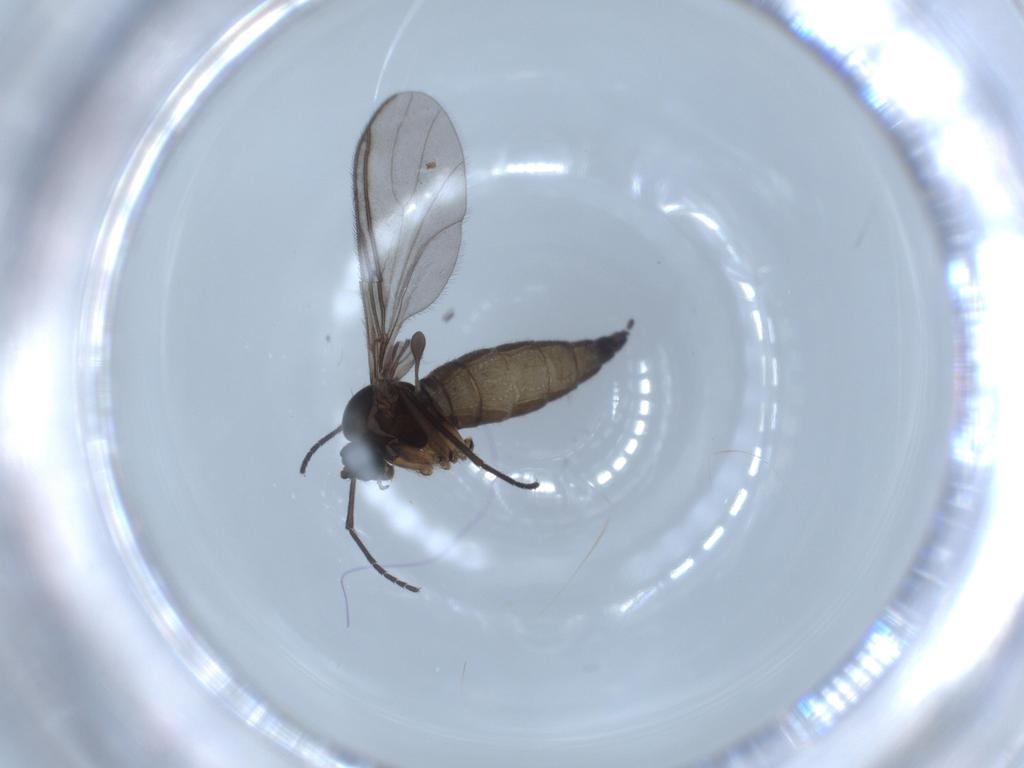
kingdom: Animalia
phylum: Arthropoda
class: Insecta
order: Diptera
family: Sciaridae
